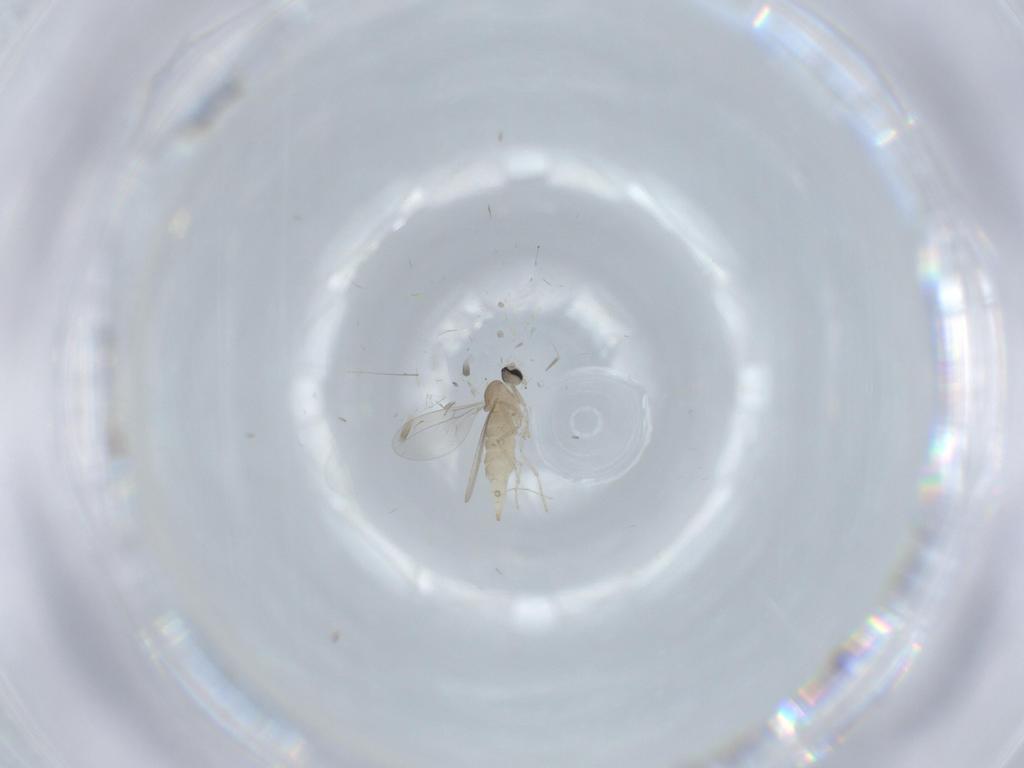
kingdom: Animalia
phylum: Arthropoda
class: Insecta
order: Diptera
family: Cecidomyiidae
